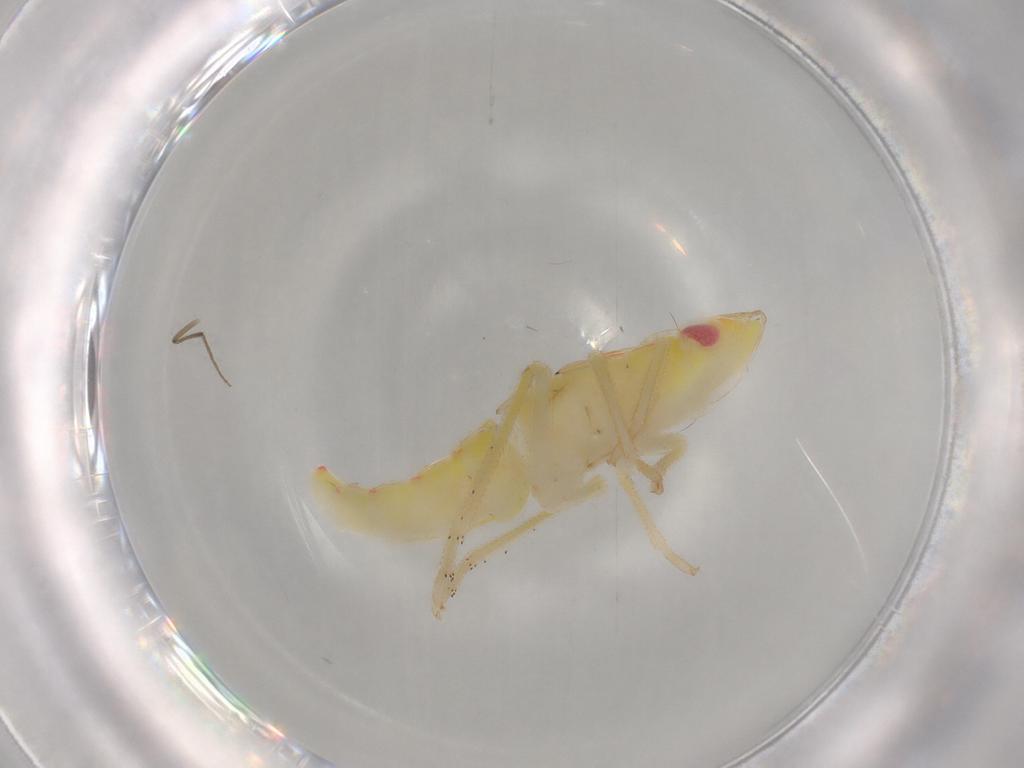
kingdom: Animalia
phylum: Arthropoda
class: Insecta
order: Hemiptera
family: Tropiduchidae
